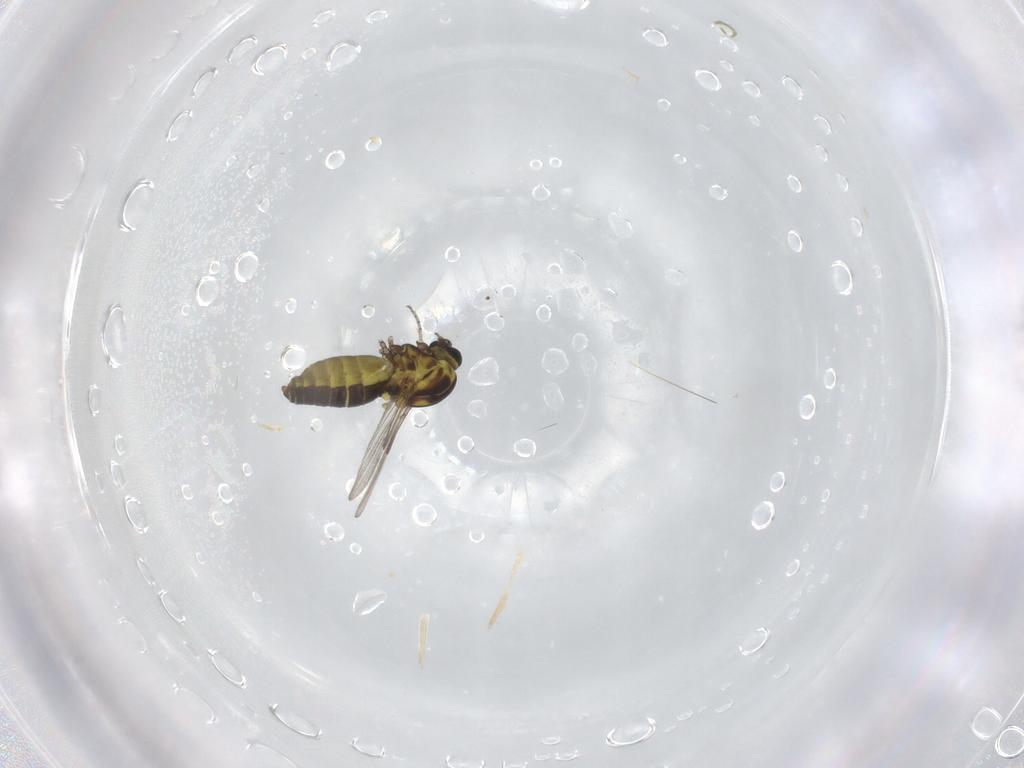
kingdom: Animalia
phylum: Arthropoda
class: Insecta
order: Diptera
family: Ceratopogonidae
